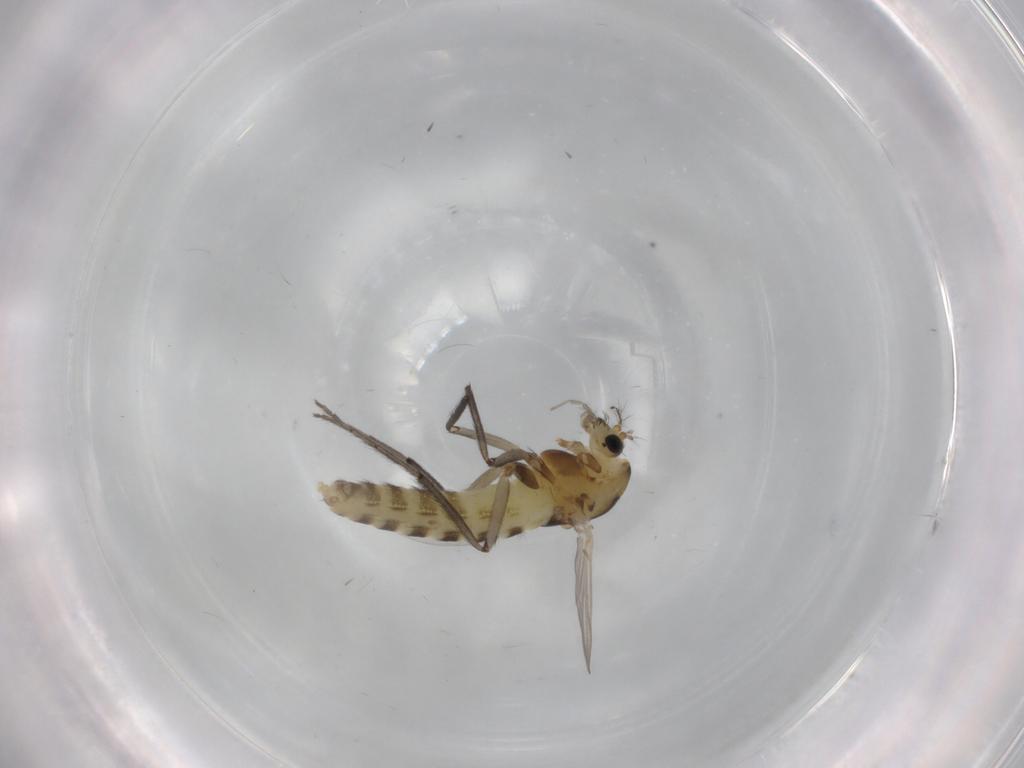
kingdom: Animalia
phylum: Arthropoda
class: Insecta
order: Diptera
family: Chironomidae
